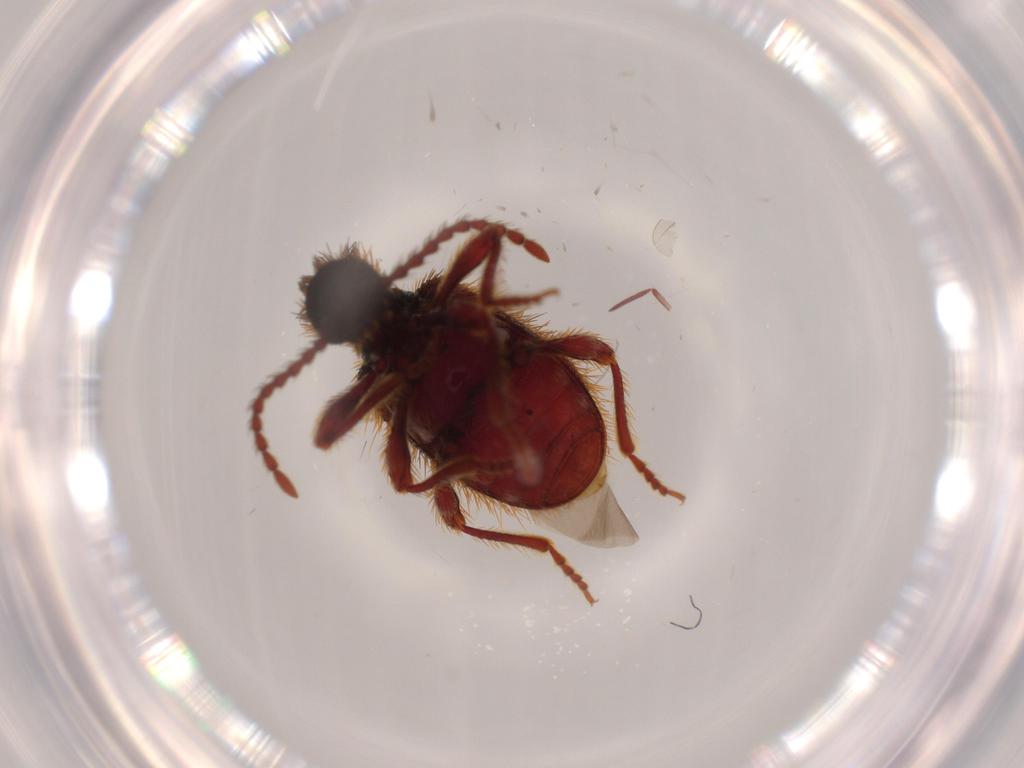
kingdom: Animalia
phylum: Arthropoda
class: Insecta
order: Coleoptera
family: Ptinidae
